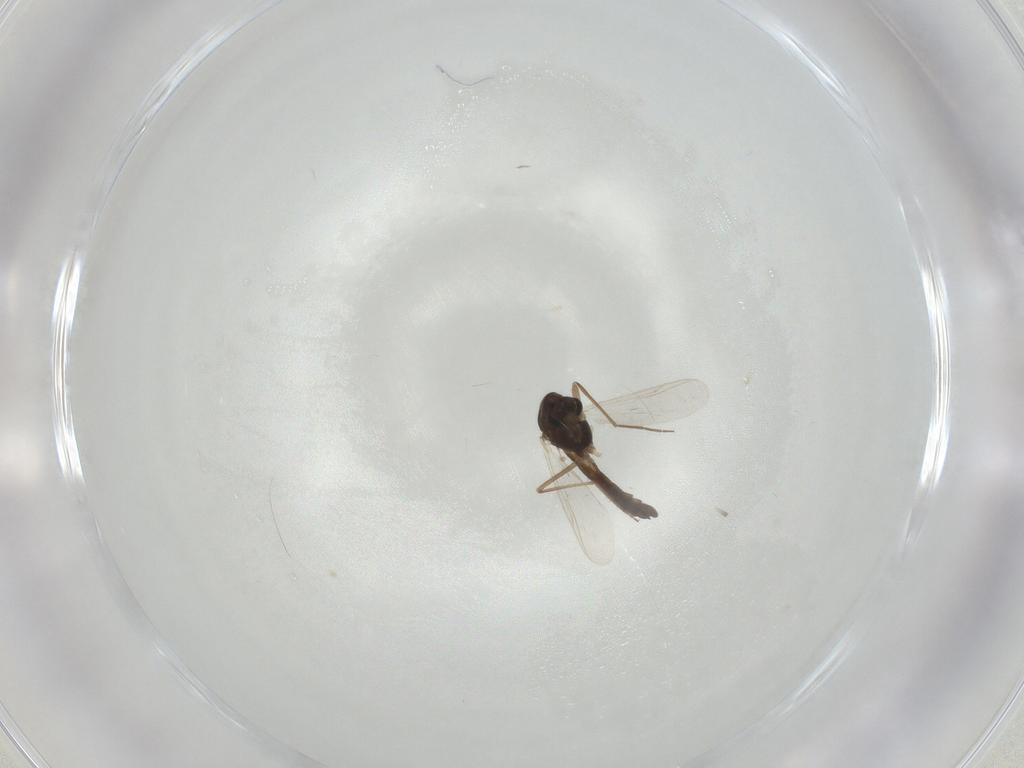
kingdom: Animalia
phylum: Arthropoda
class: Insecta
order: Diptera
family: Chironomidae
